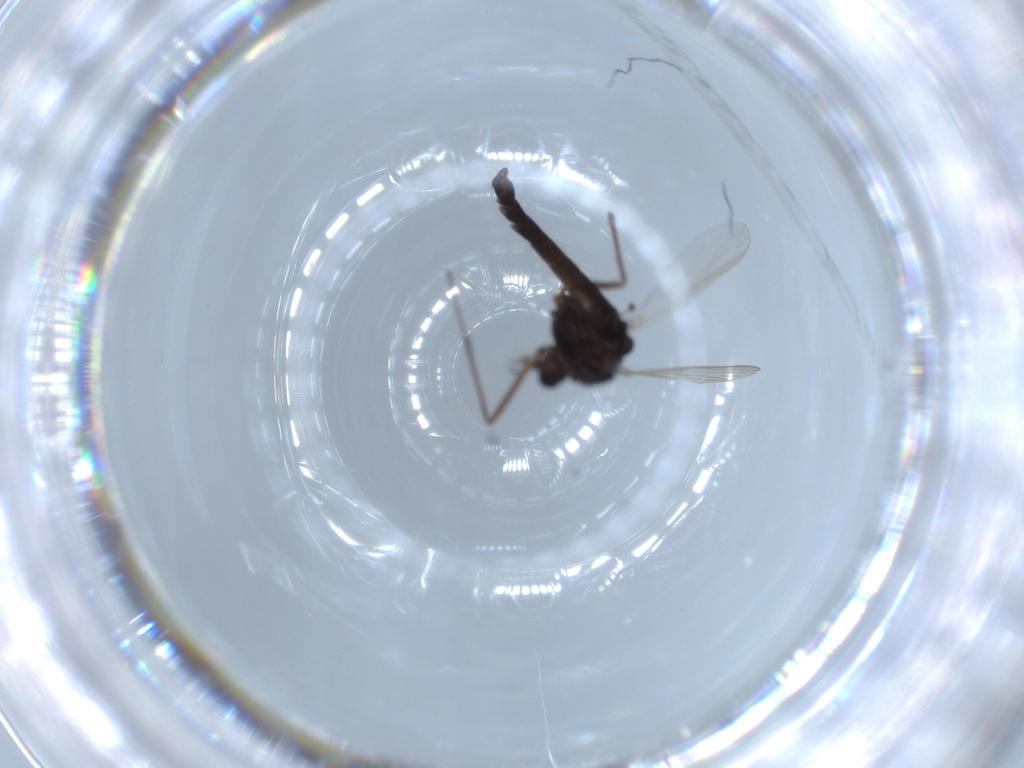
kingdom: Animalia
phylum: Arthropoda
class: Insecta
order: Diptera
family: Chironomidae
